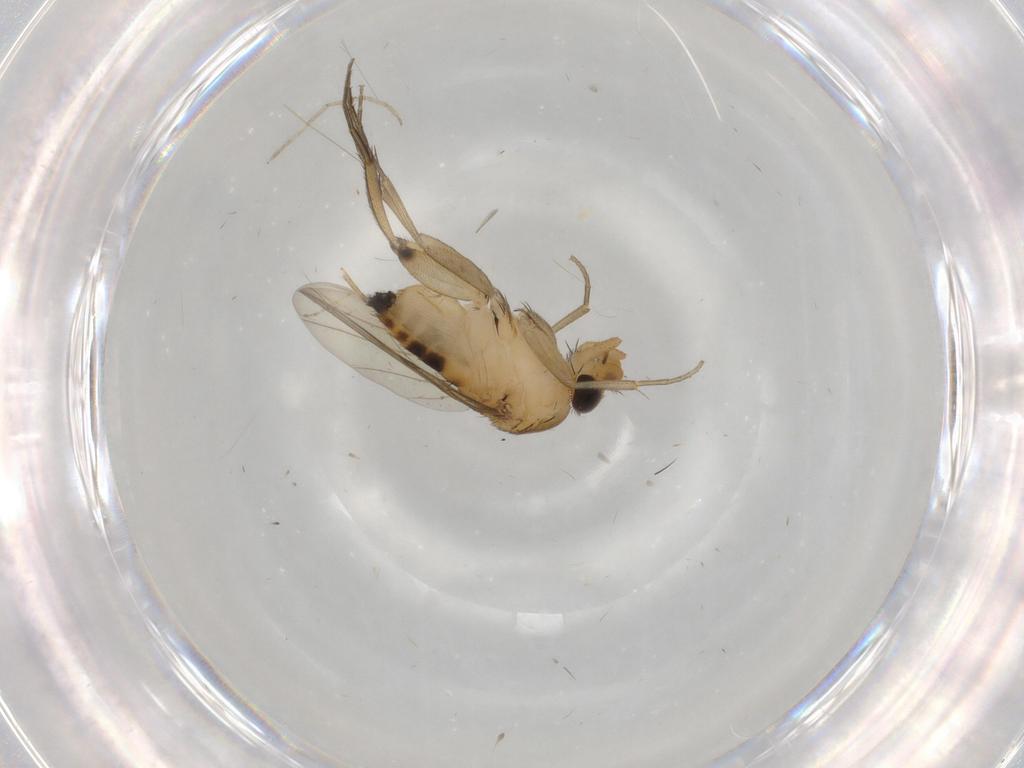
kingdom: Animalia
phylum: Arthropoda
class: Insecta
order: Diptera
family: Phoridae
